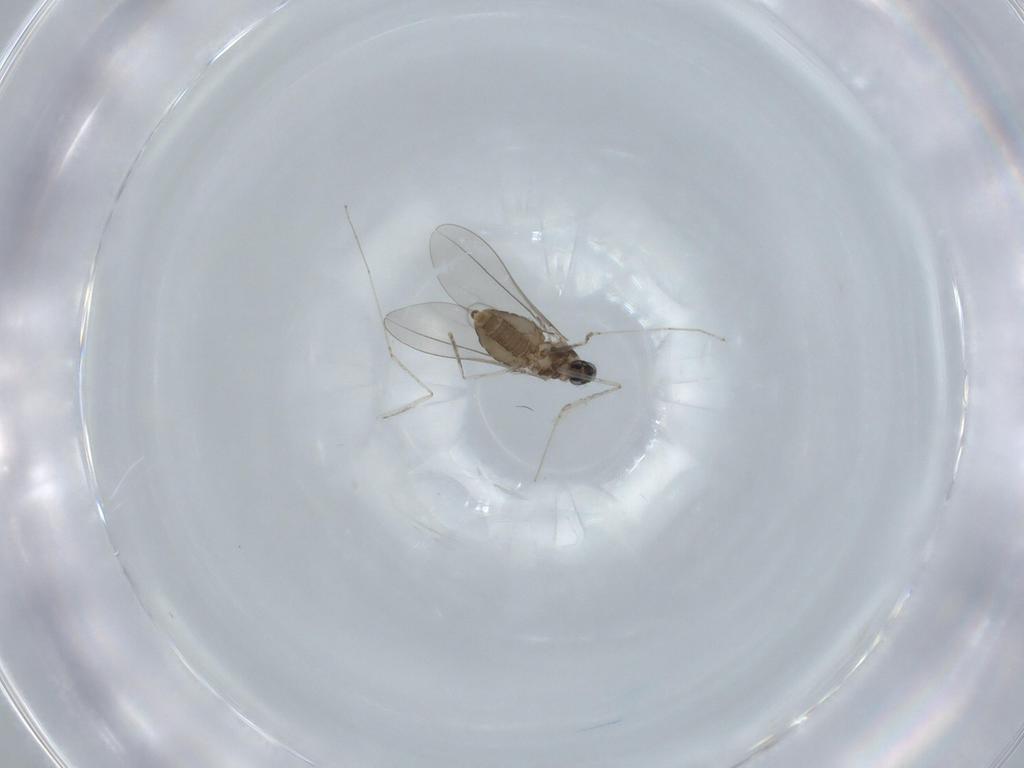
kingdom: Animalia
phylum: Arthropoda
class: Insecta
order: Diptera
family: Cecidomyiidae
